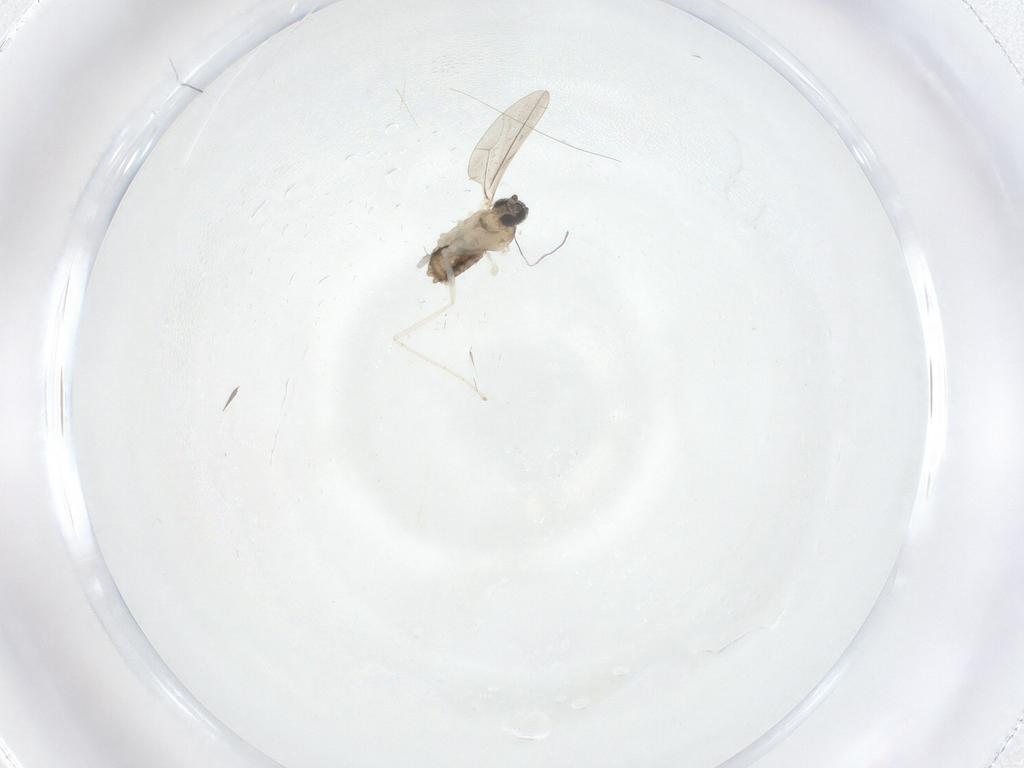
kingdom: Animalia
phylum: Arthropoda
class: Insecta
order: Diptera
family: Cecidomyiidae
